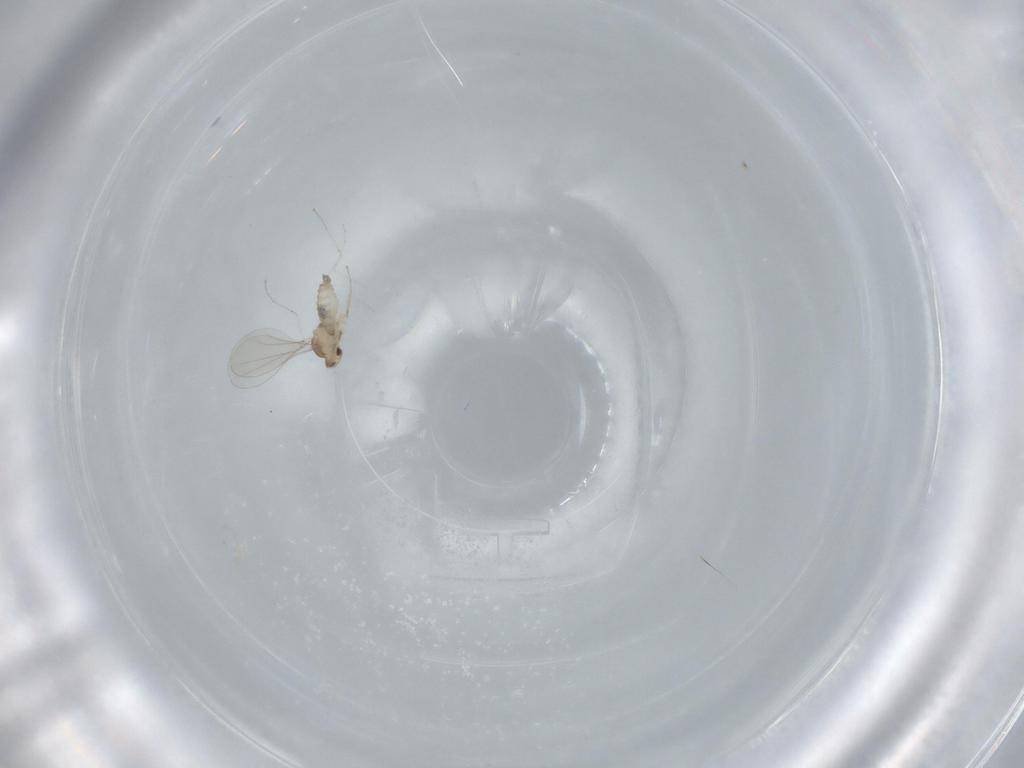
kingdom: Animalia
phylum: Arthropoda
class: Insecta
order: Diptera
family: Cecidomyiidae
